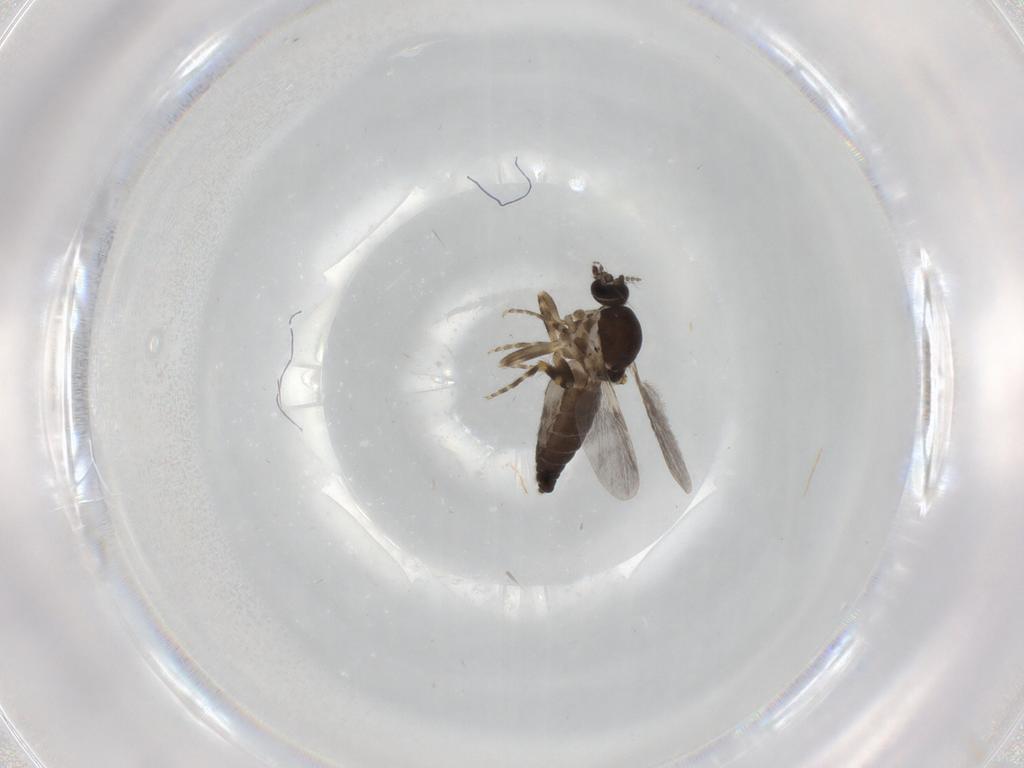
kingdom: Animalia
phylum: Arthropoda
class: Insecta
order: Diptera
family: Ceratopogonidae
